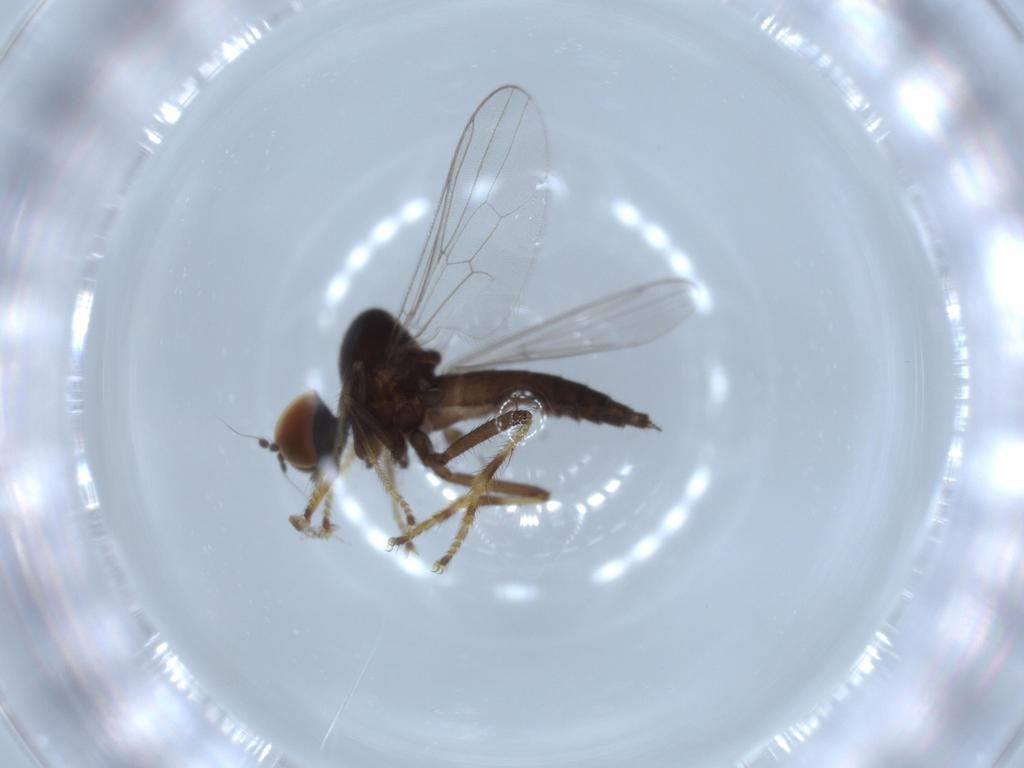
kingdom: Animalia
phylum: Arthropoda
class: Insecta
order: Diptera
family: Hybotidae
